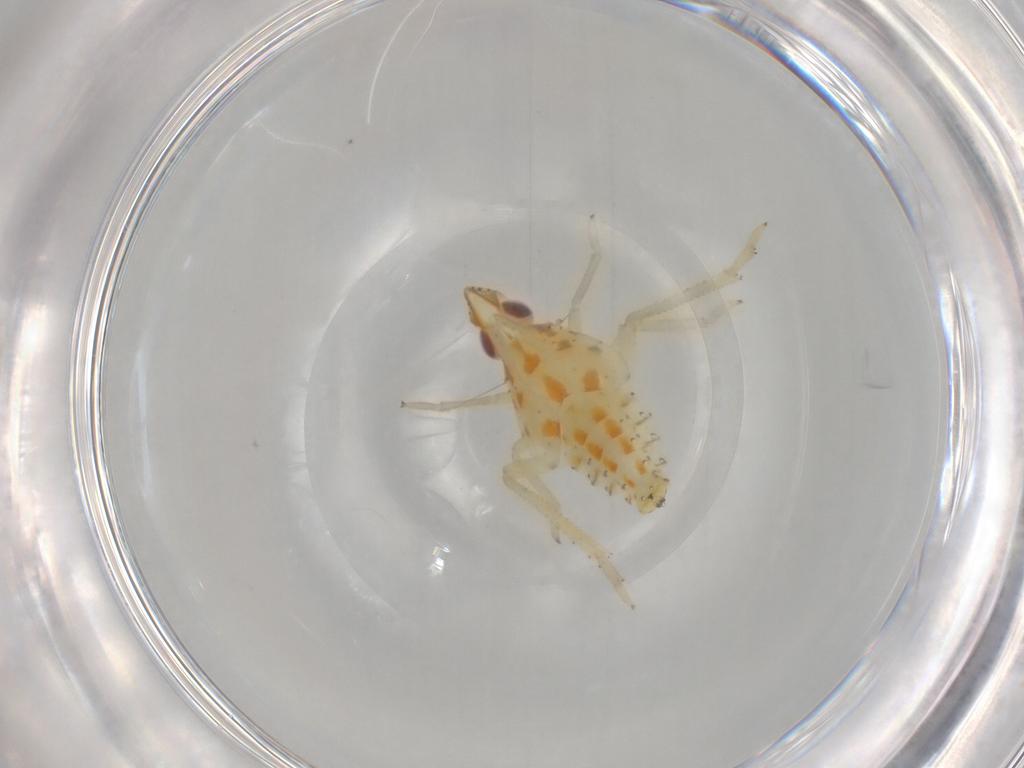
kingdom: Animalia
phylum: Arthropoda
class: Insecta
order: Hemiptera
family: Tropiduchidae
